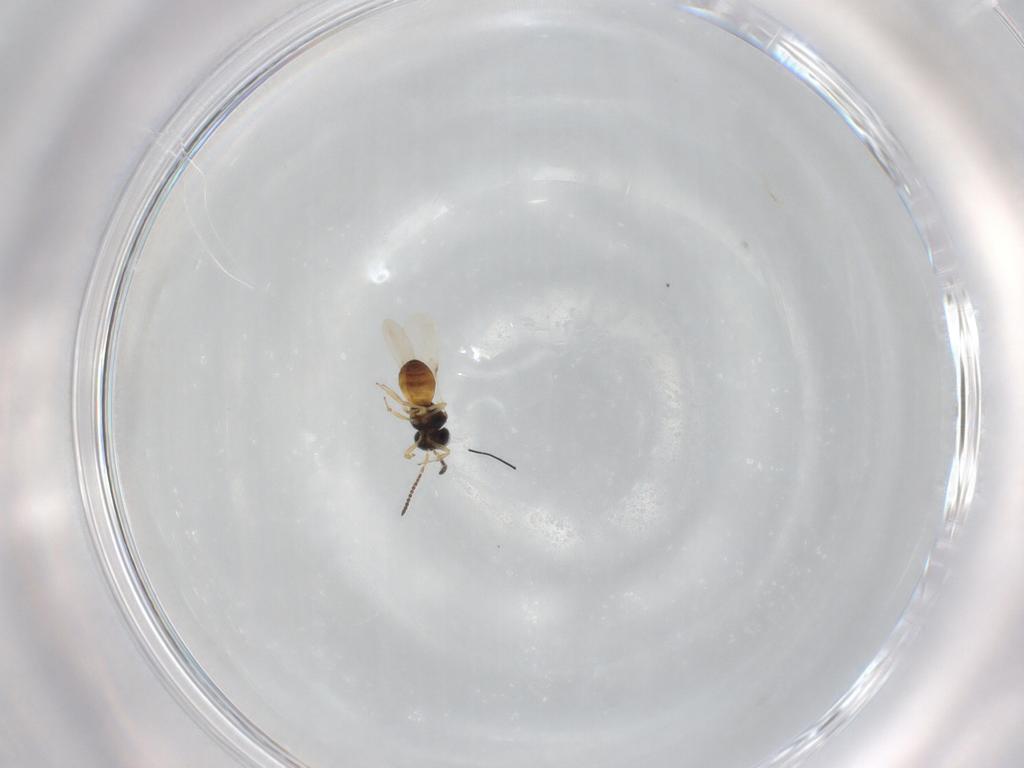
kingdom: Animalia
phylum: Arthropoda
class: Insecta
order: Hymenoptera
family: Scelionidae
